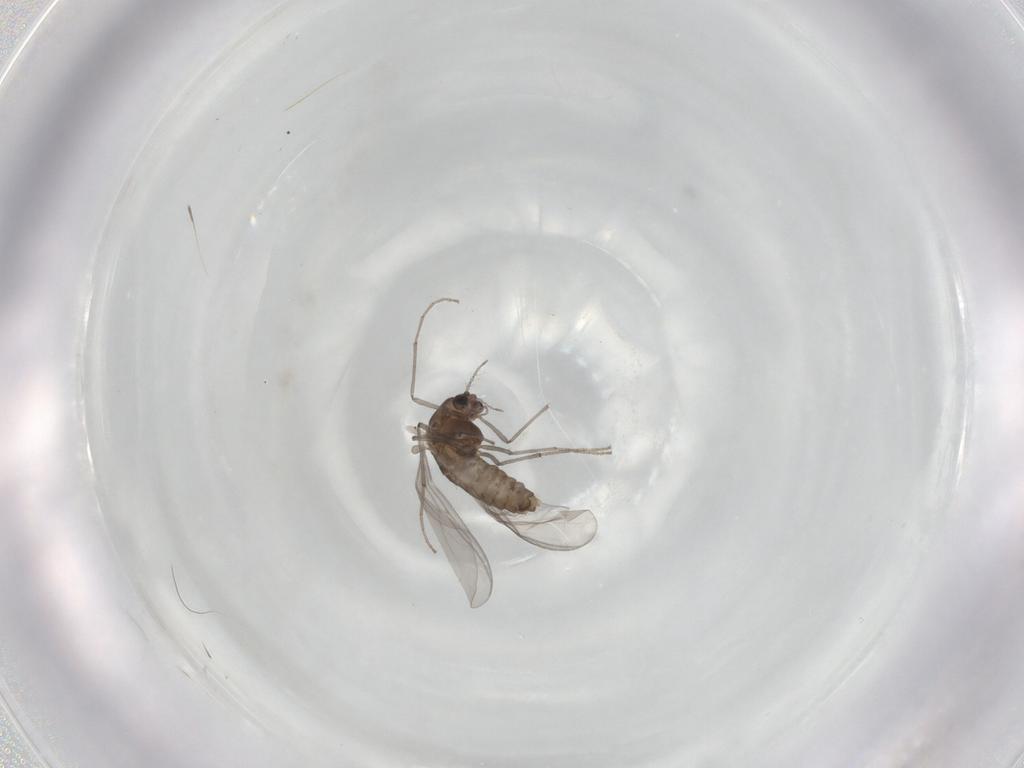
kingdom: Animalia
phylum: Arthropoda
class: Insecta
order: Diptera
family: Chironomidae
